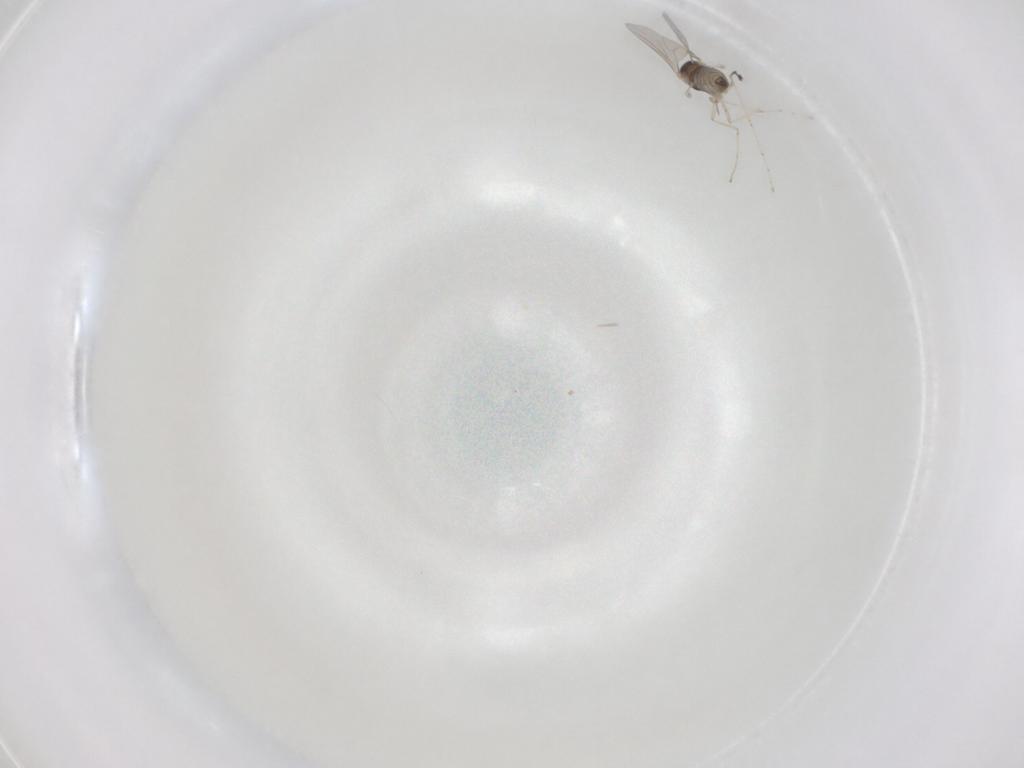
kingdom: Animalia
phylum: Arthropoda
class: Insecta
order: Diptera
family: Cecidomyiidae
